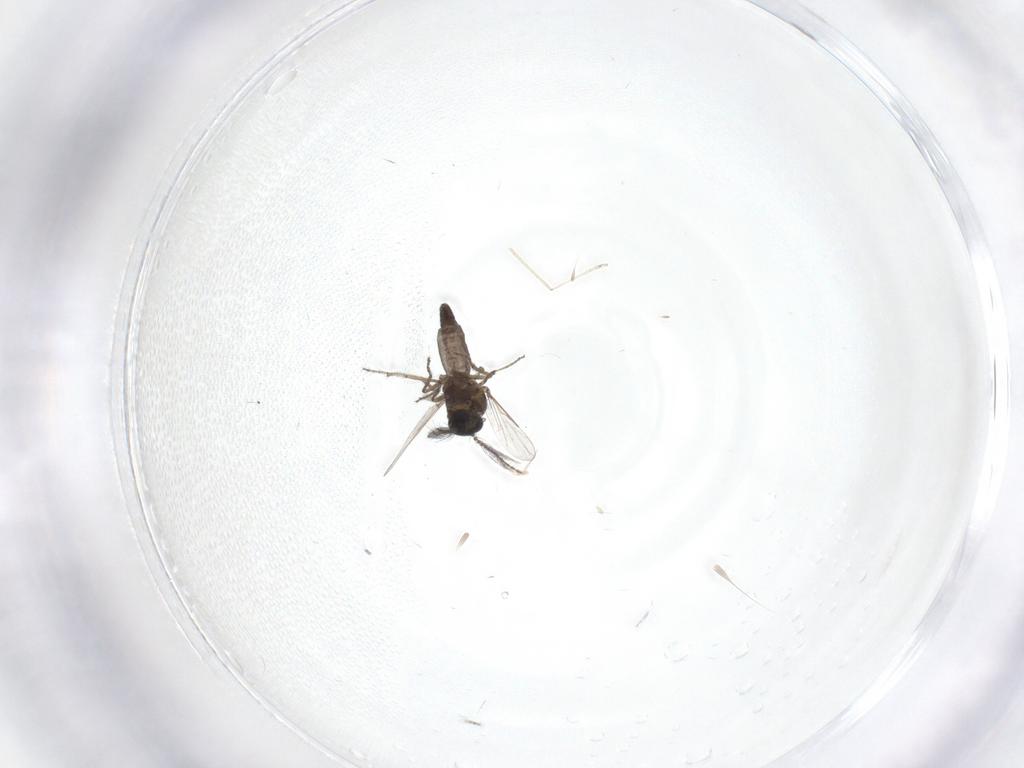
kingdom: Animalia
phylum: Arthropoda
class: Insecta
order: Diptera
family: Ceratopogonidae
